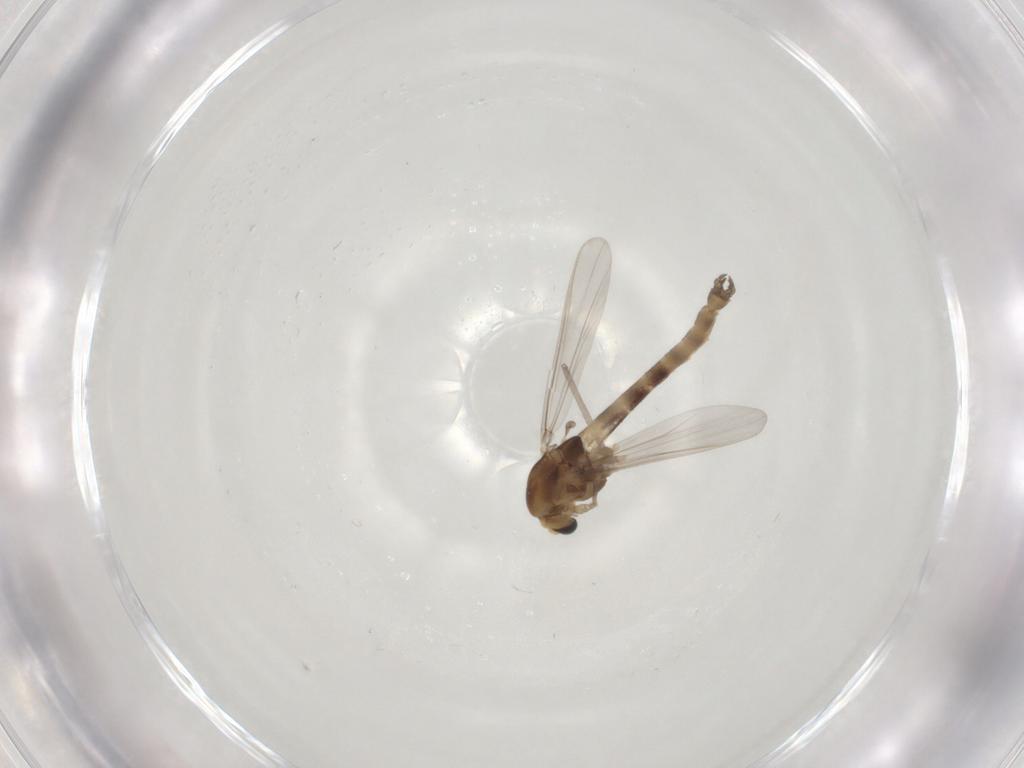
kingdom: Animalia
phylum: Arthropoda
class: Insecta
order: Diptera
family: Chironomidae
